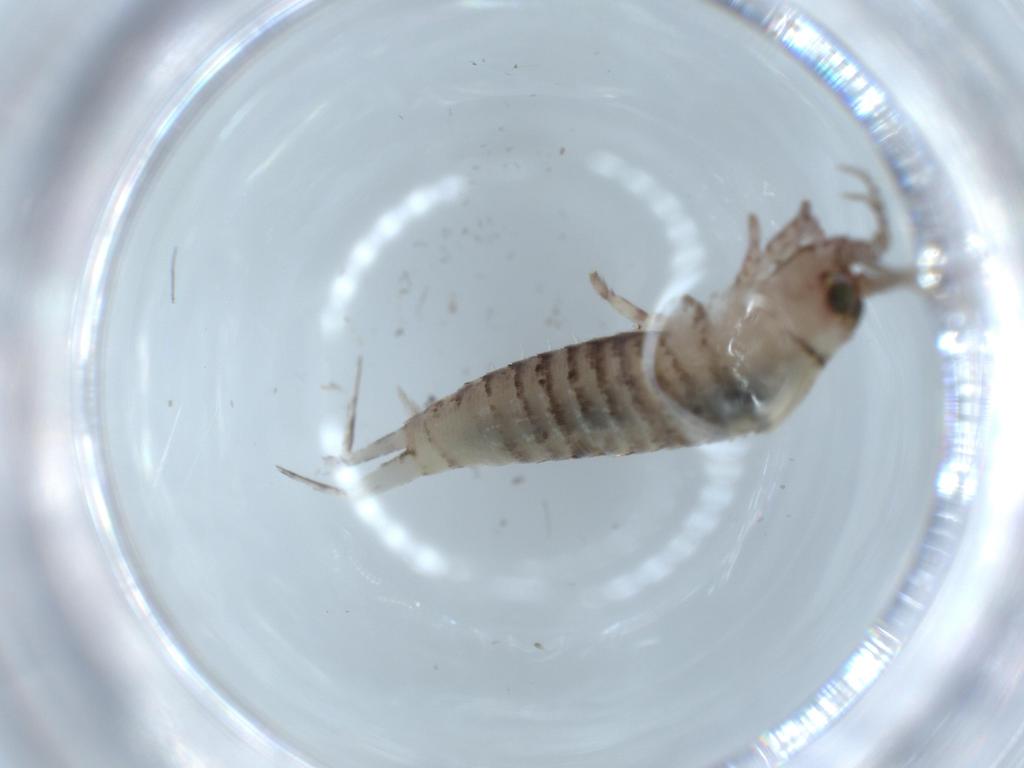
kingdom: Animalia
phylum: Arthropoda
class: Insecta
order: Archaeognatha
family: Machilidae
